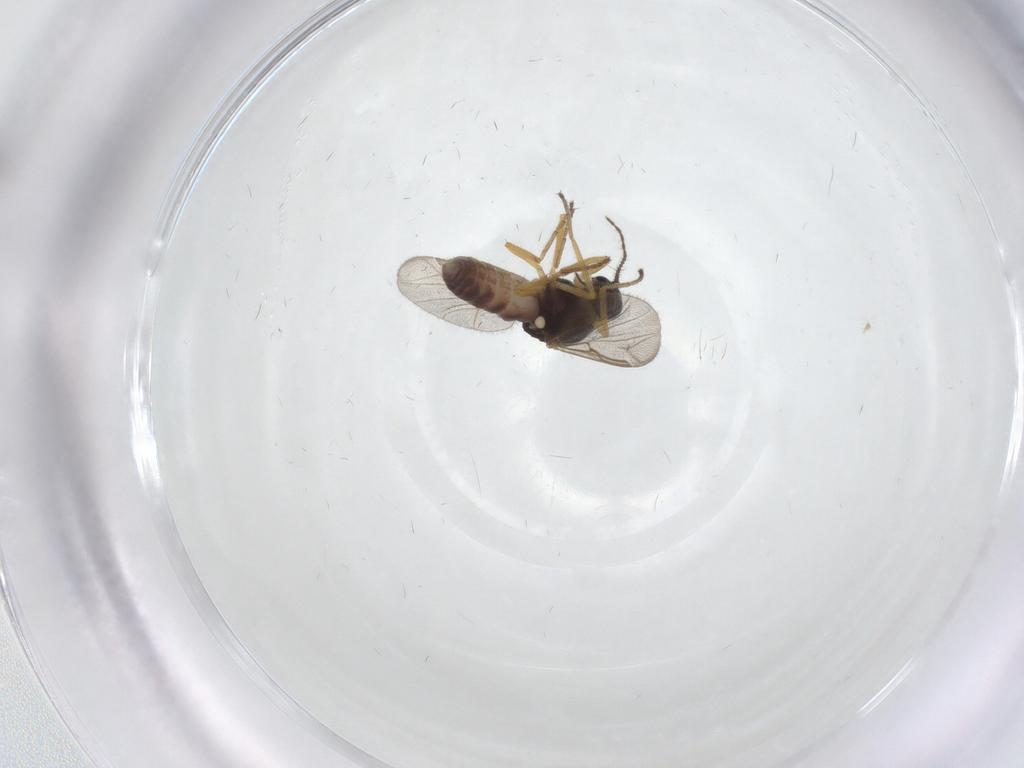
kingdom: Animalia
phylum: Arthropoda
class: Insecta
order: Diptera
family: Ceratopogonidae
